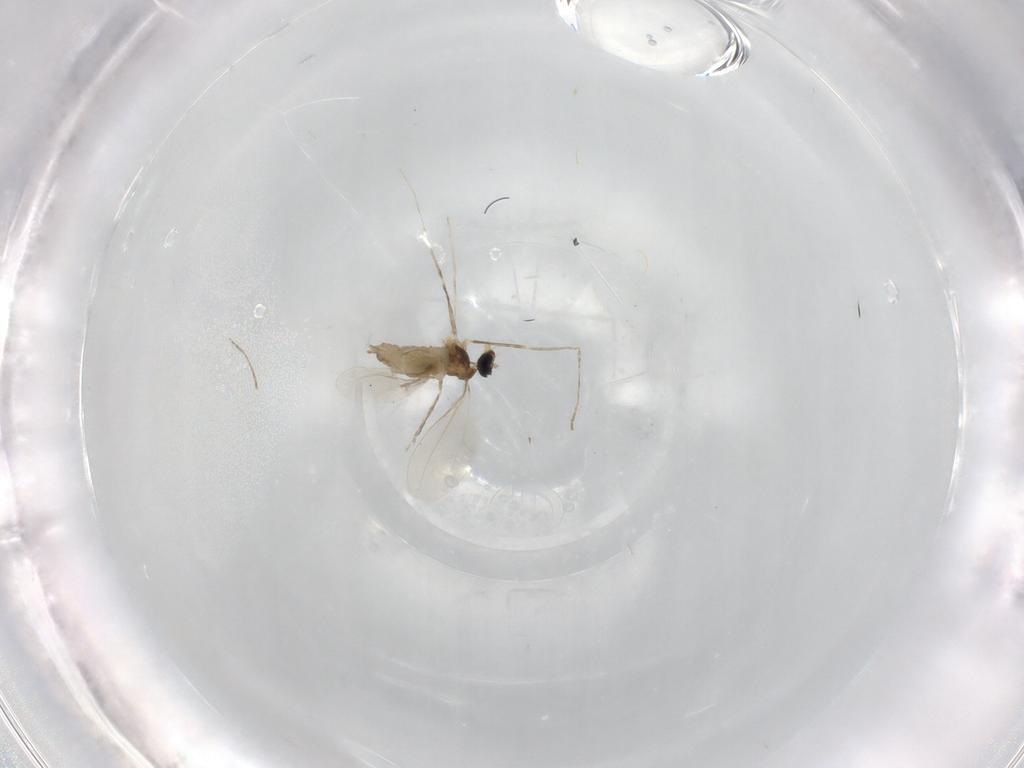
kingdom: Animalia
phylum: Arthropoda
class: Insecta
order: Diptera
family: Cecidomyiidae
